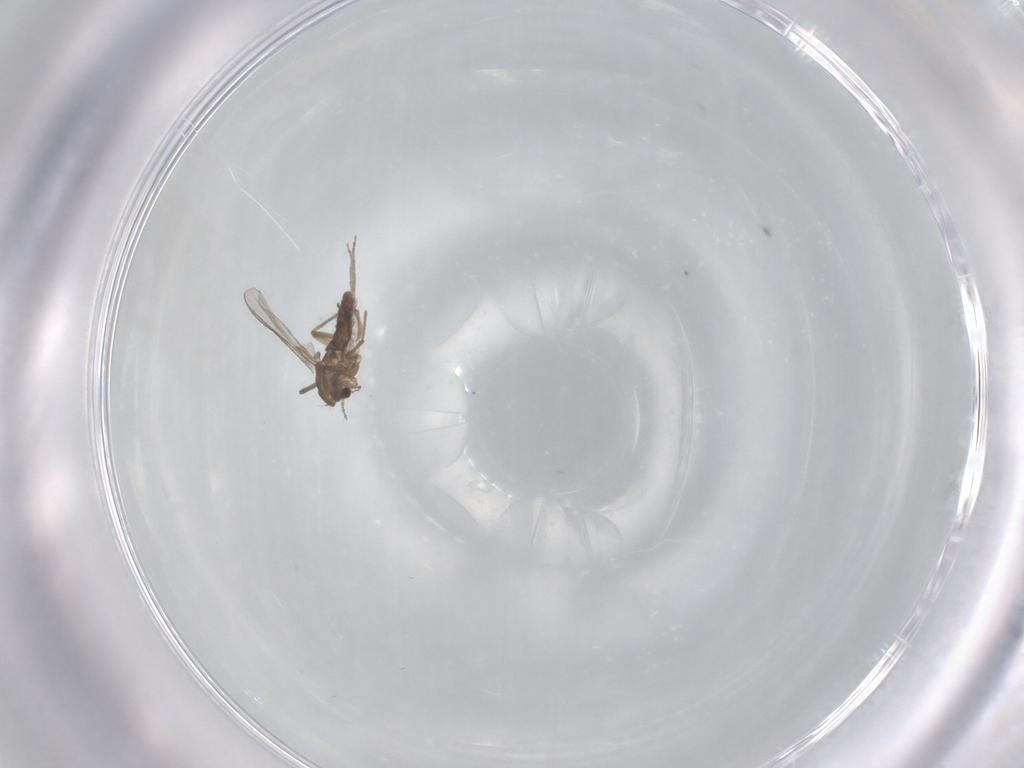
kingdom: Animalia
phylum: Arthropoda
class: Insecta
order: Diptera
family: Chironomidae
